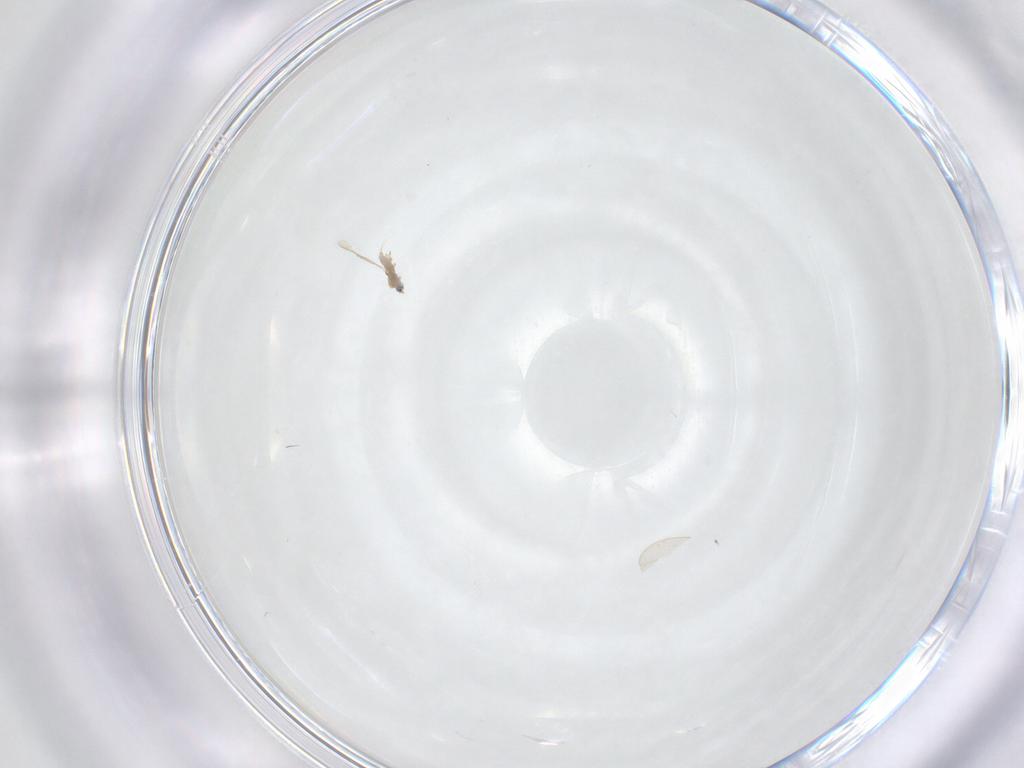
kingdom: Animalia
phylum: Arthropoda
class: Insecta
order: Diptera
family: Cecidomyiidae
